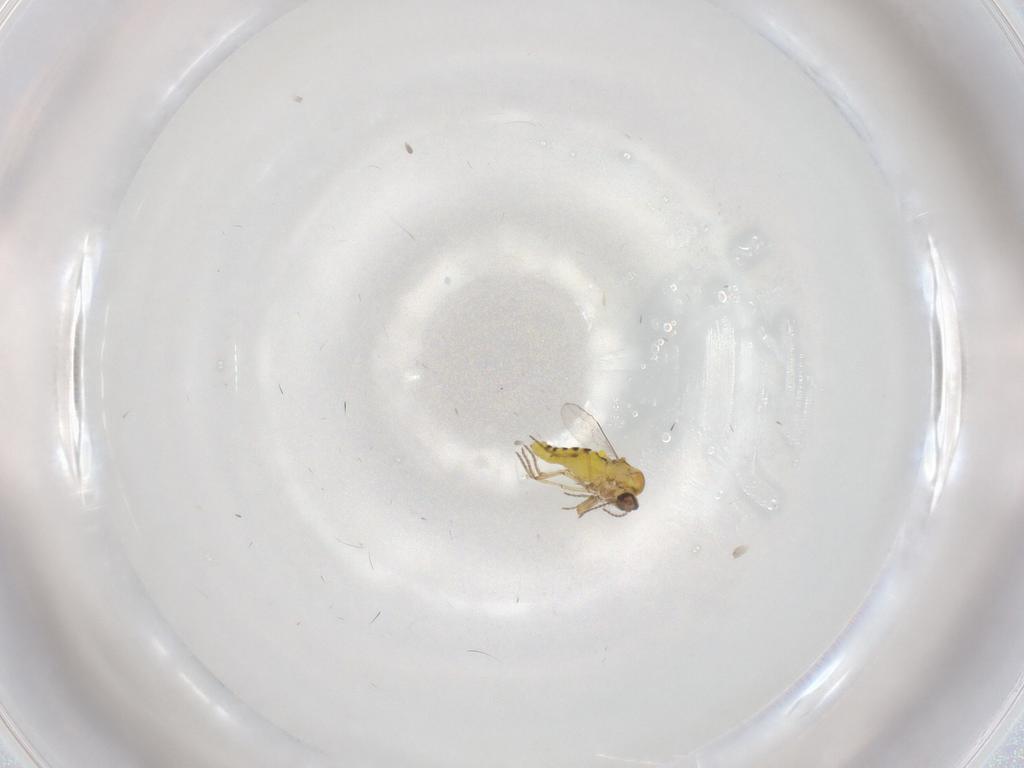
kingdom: Animalia
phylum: Arthropoda
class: Insecta
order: Diptera
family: Ceratopogonidae
